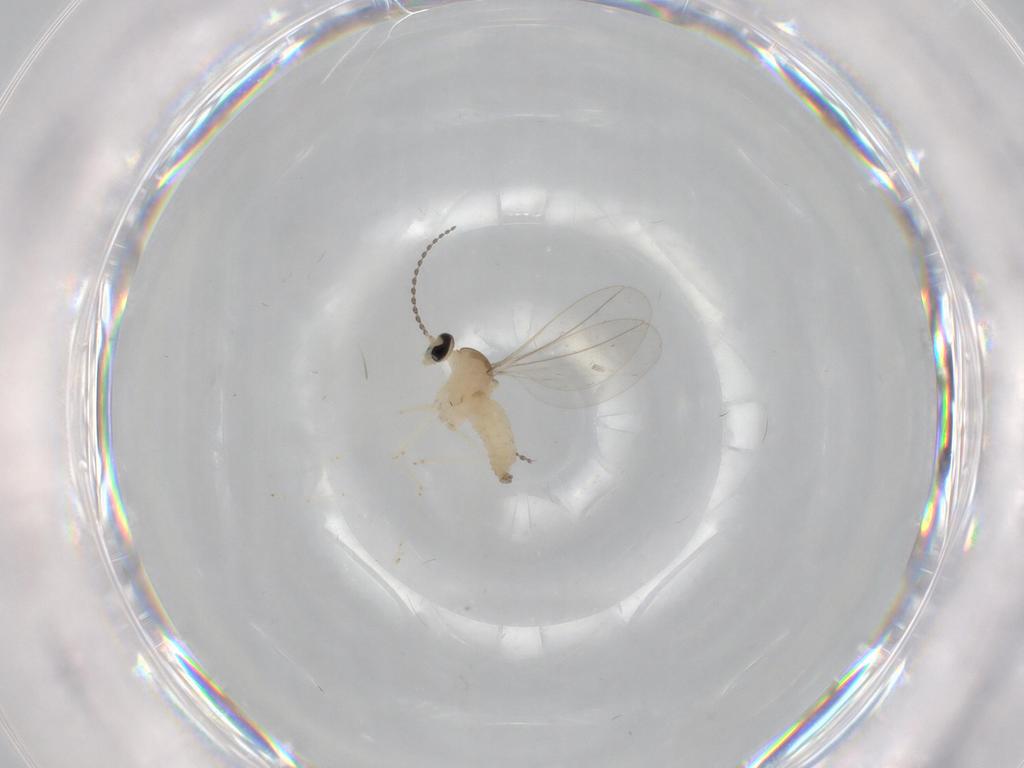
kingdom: Animalia
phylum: Arthropoda
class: Insecta
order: Diptera
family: Cecidomyiidae
